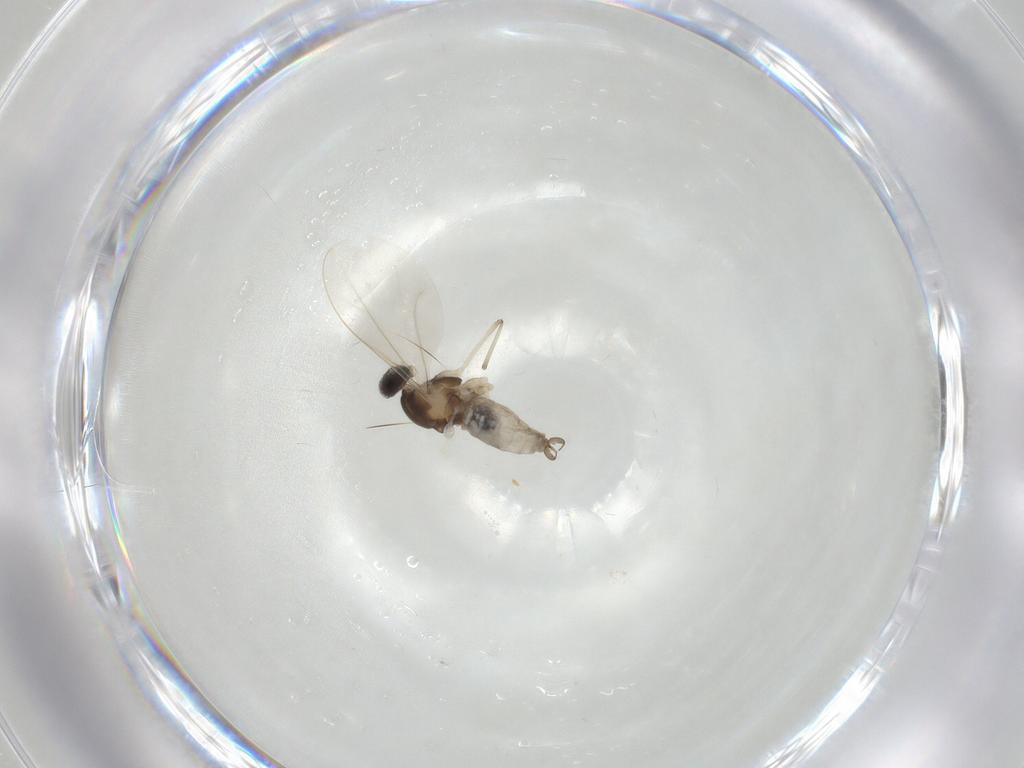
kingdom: Animalia
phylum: Arthropoda
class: Insecta
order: Diptera
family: Cecidomyiidae
